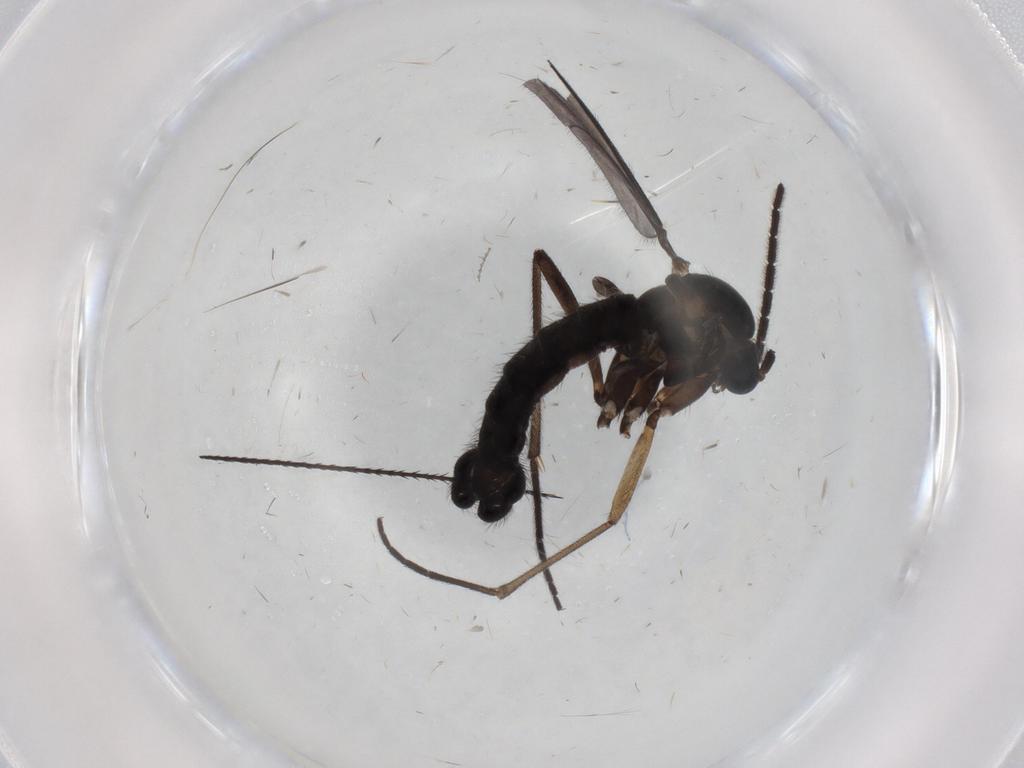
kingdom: Animalia
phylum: Arthropoda
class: Insecta
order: Diptera
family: Sciaridae
